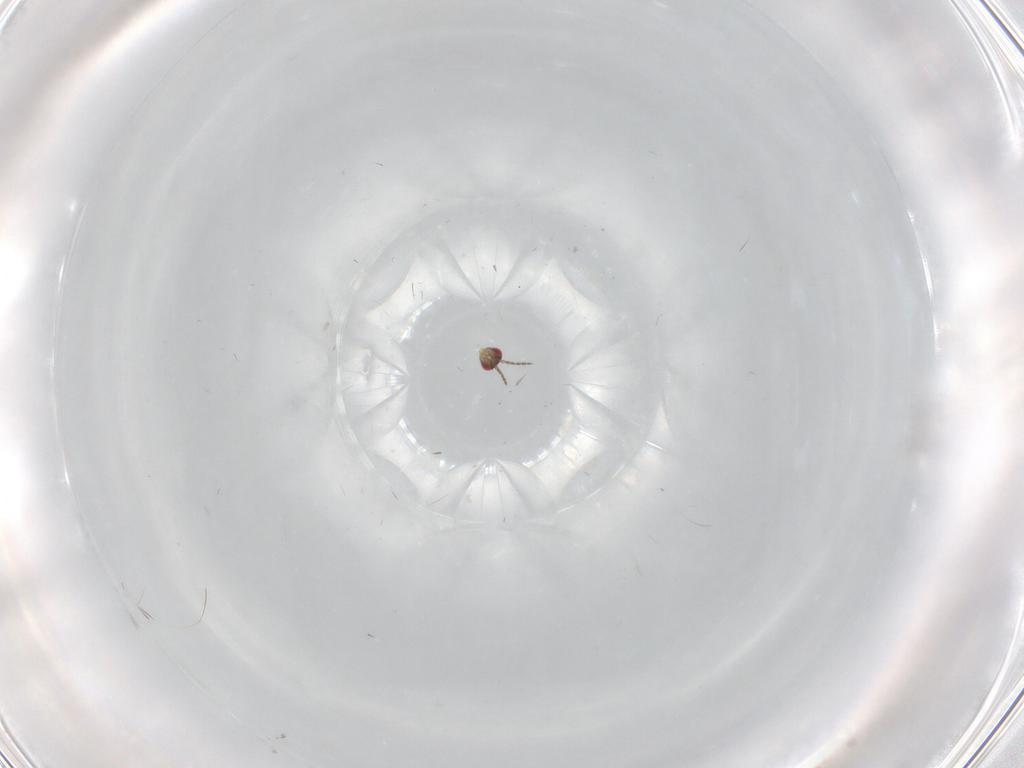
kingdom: Animalia
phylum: Arthropoda
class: Insecta
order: Hymenoptera
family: Eulophidae
